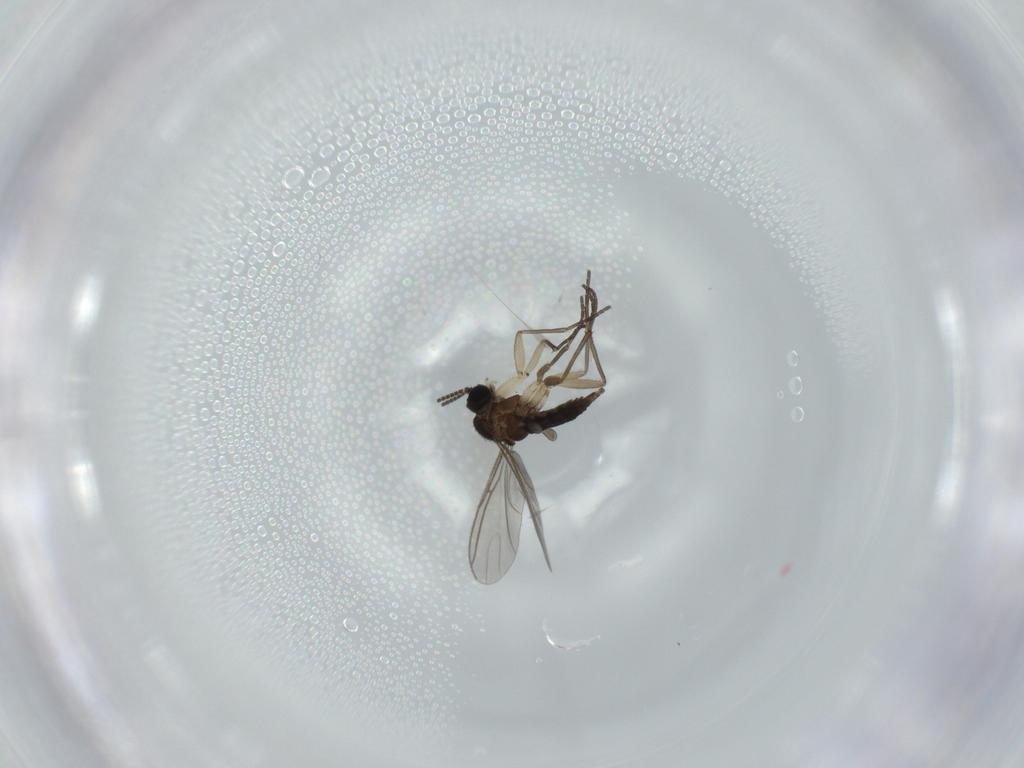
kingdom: Animalia
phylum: Arthropoda
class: Insecta
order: Diptera
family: Sciaridae
